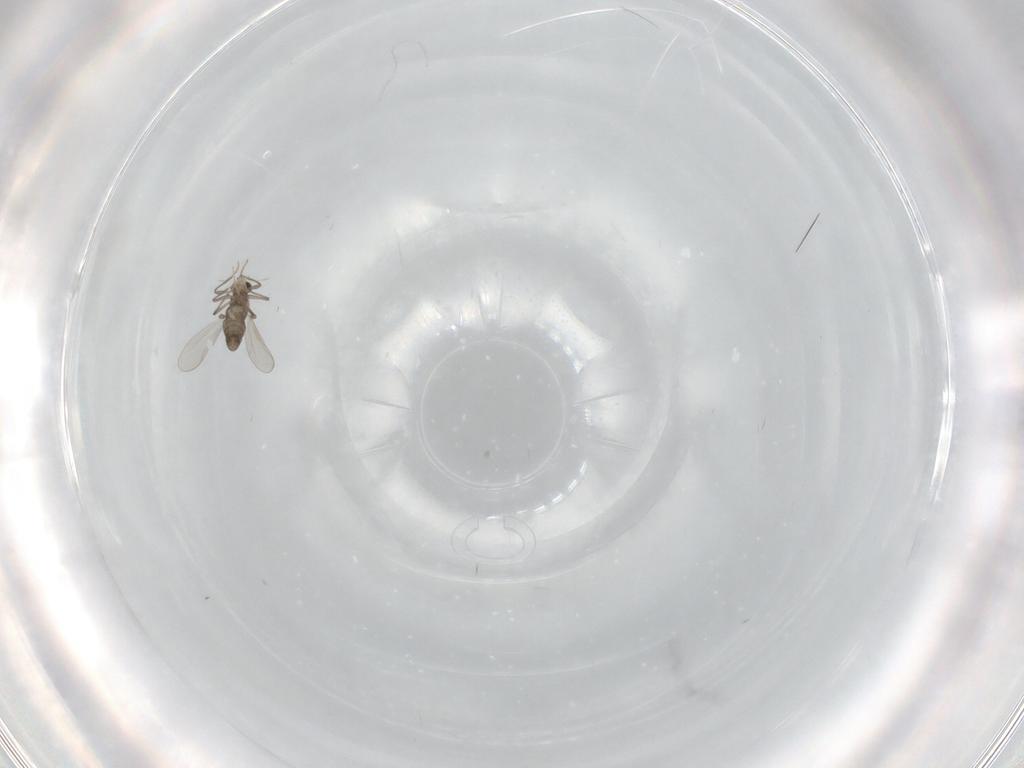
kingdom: Animalia
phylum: Arthropoda
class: Insecta
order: Diptera
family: Chironomidae
